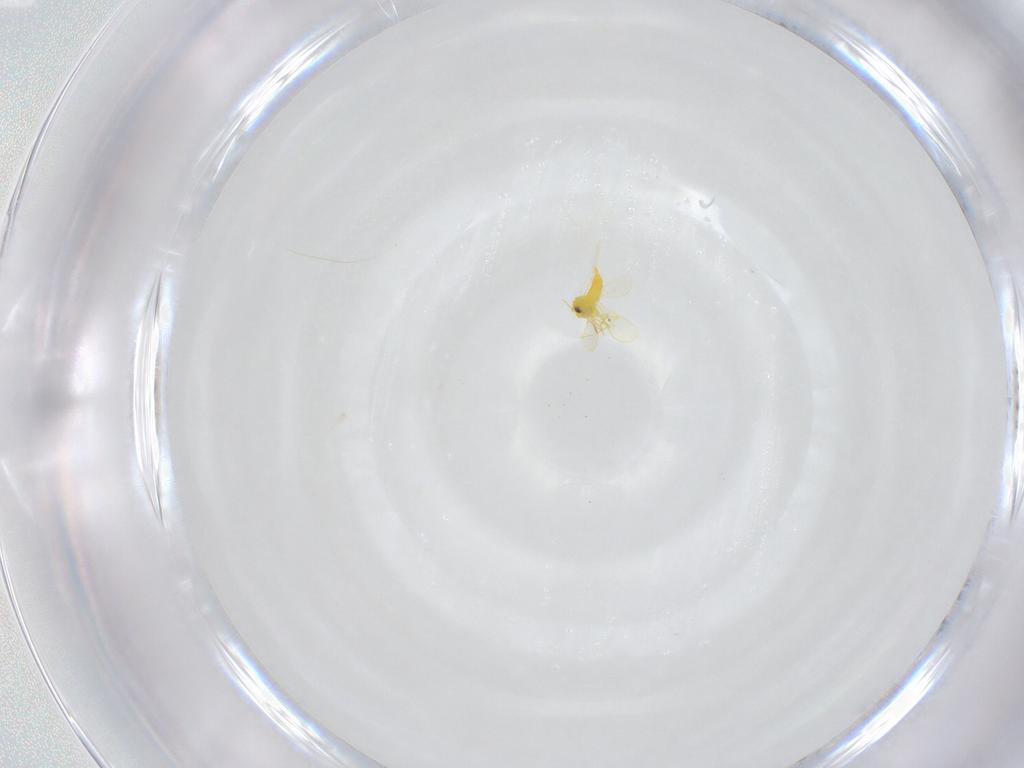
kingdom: Animalia
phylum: Arthropoda
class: Insecta
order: Hemiptera
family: Aleyrodidae
